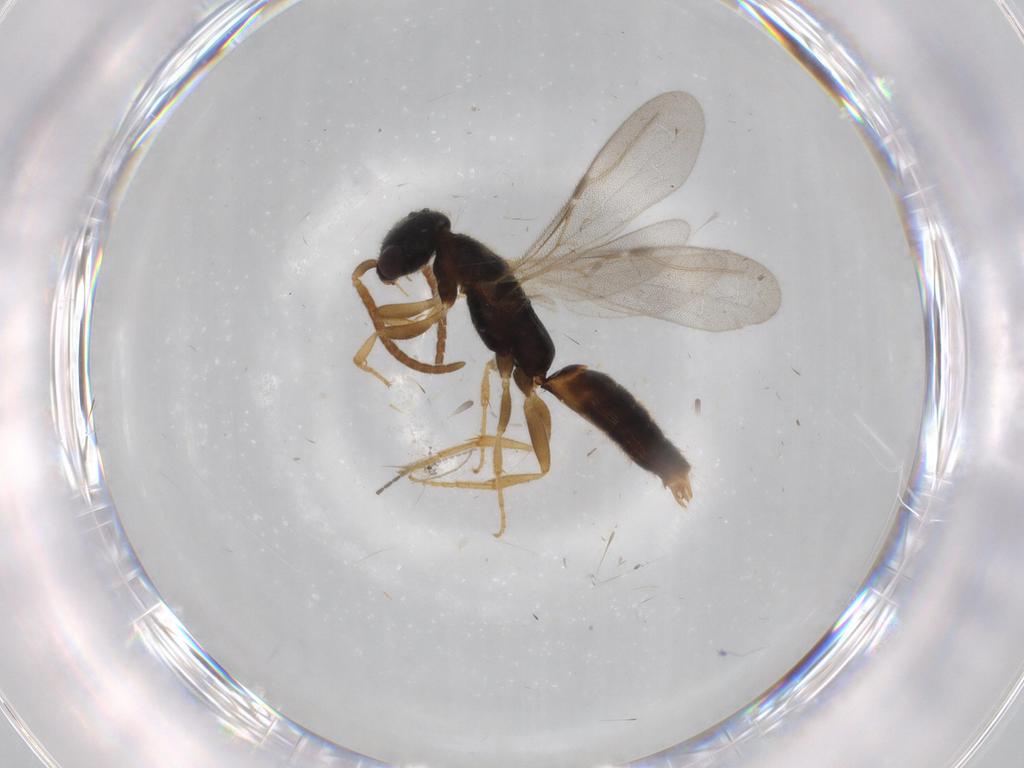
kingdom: Animalia
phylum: Arthropoda
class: Insecta
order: Hymenoptera
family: Bethylidae
